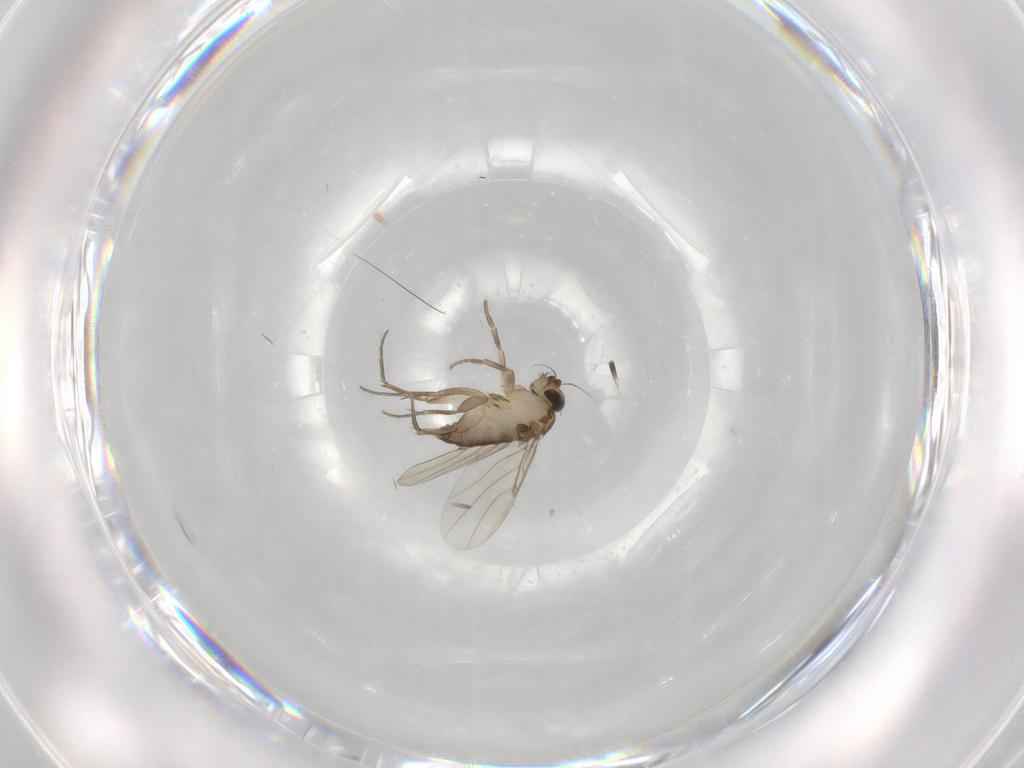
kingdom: Animalia
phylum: Arthropoda
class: Insecta
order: Diptera
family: Phoridae
